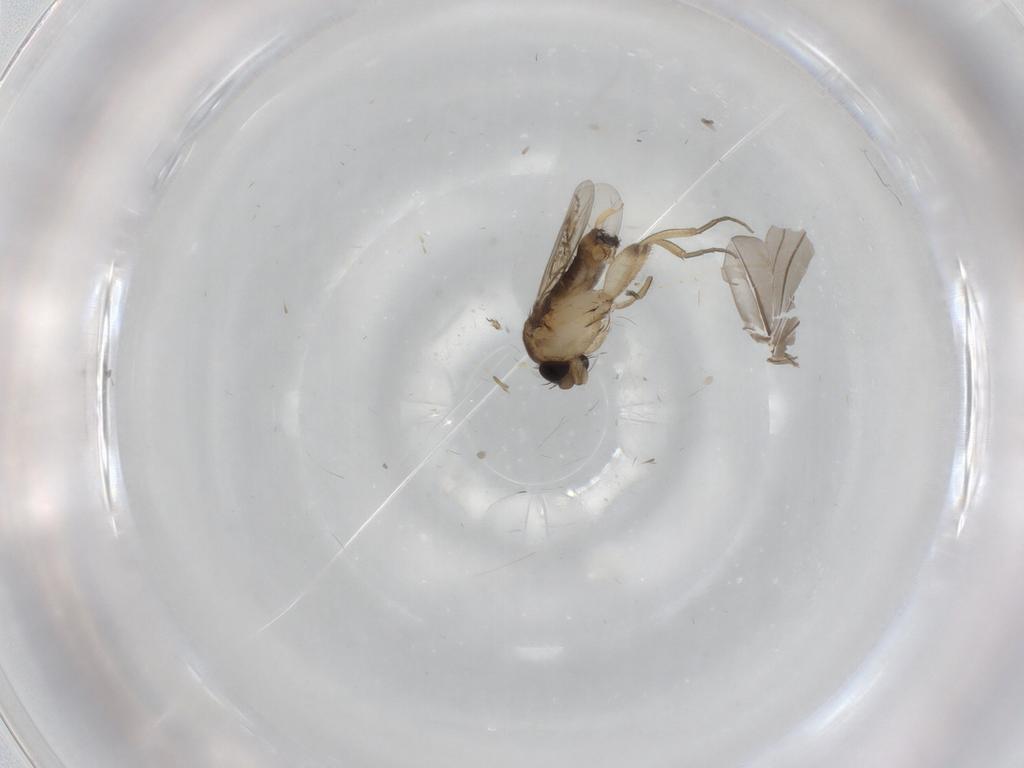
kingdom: Animalia
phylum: Arthropoda
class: Insecta
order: Diptera
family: Phoridae
